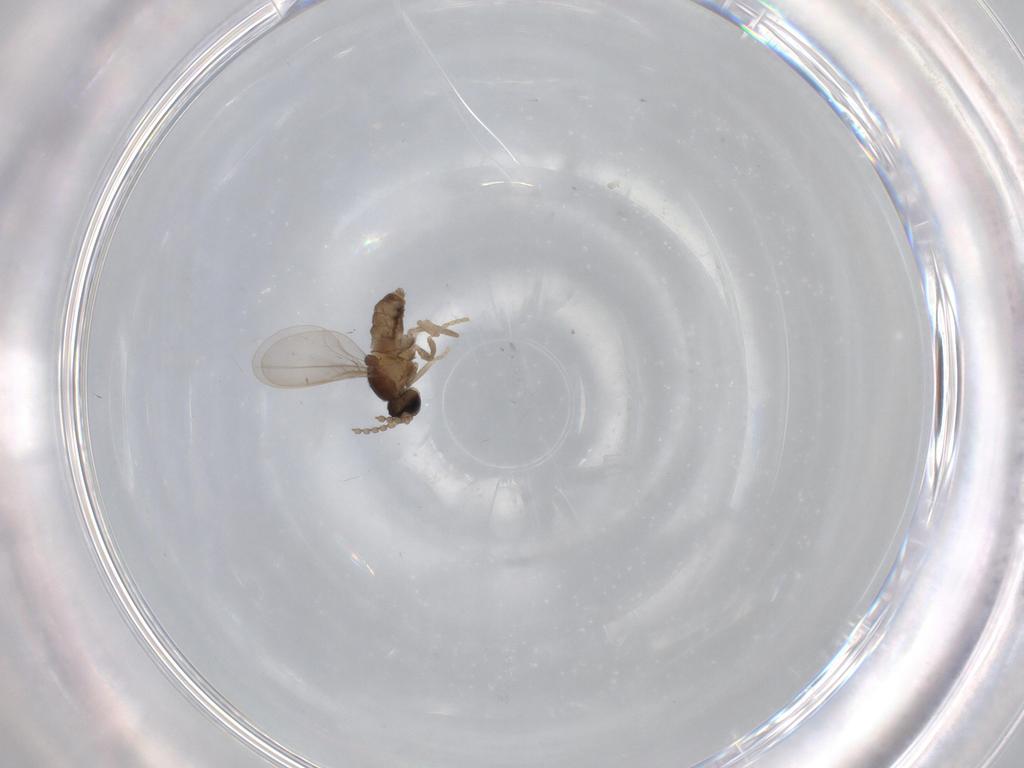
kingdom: Animalia
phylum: Arthropoda
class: Insecta
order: Diptera
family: Cecidomyiidae
